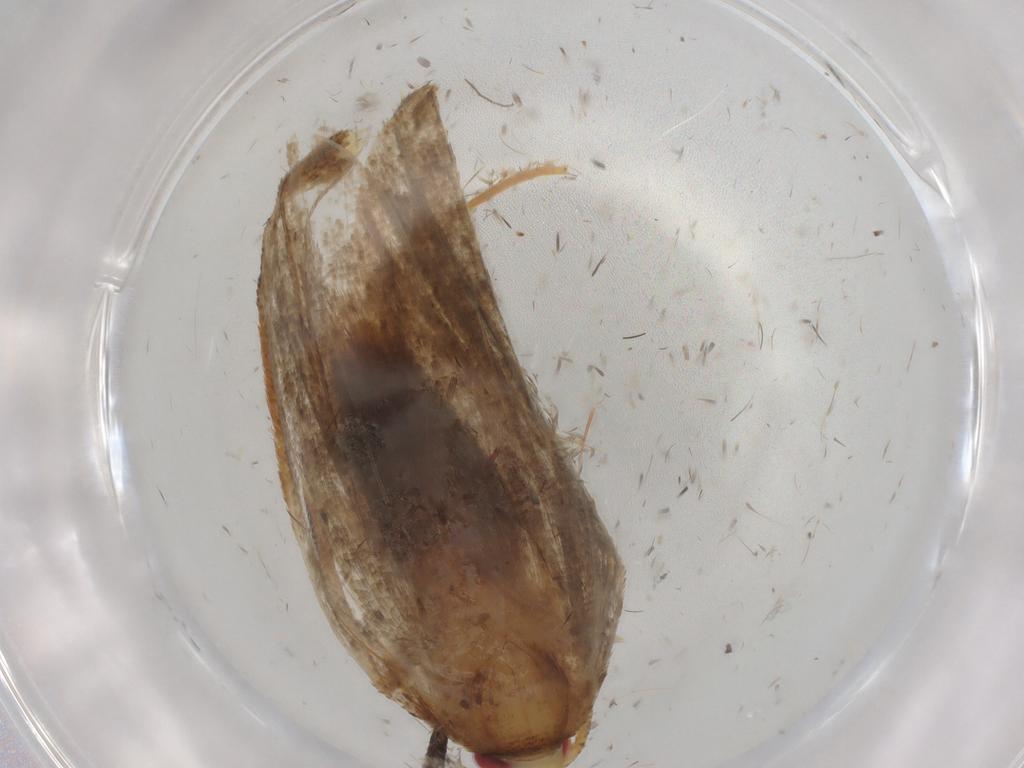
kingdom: Animalia
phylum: Arthropoda
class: Insecta
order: Lepidoptera
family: Oecophoridae
